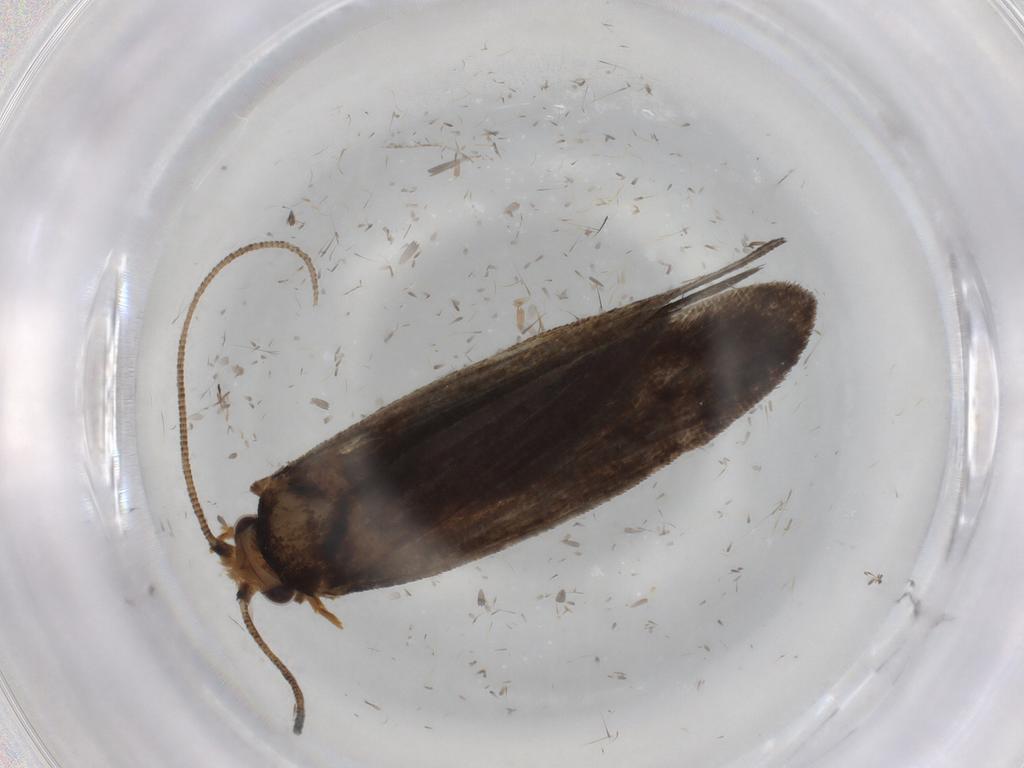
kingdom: Animalia
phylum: Arthropoda
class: Insecta
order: Lepidoptera
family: Tineidae
